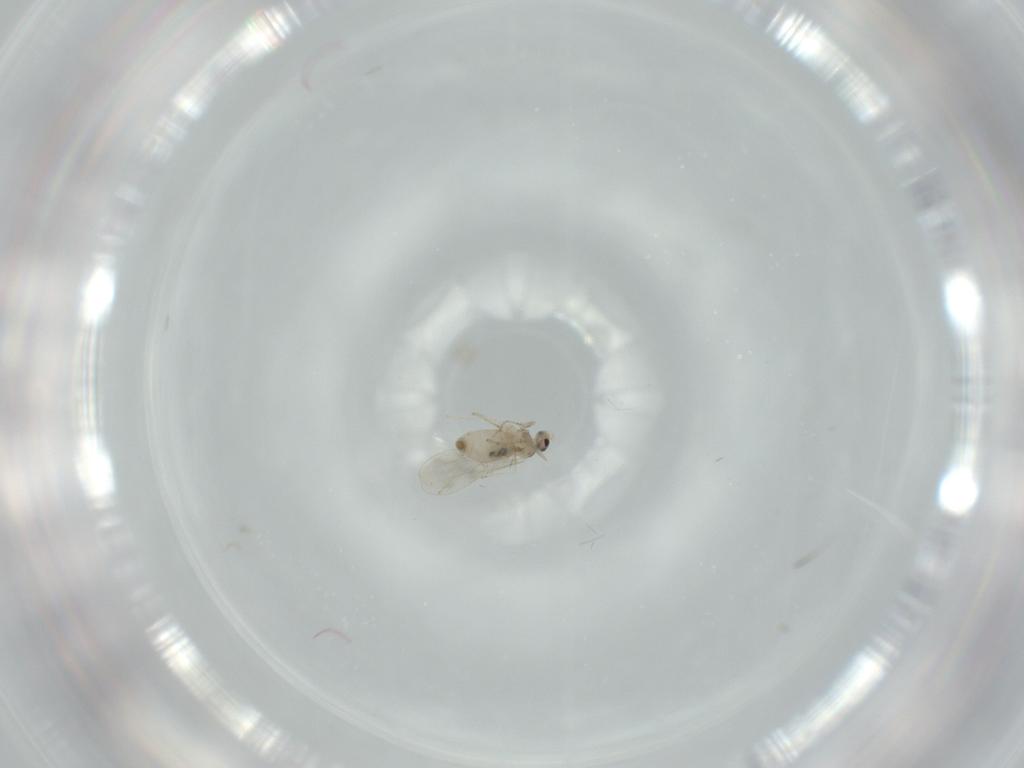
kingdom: Animalia
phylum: Arthropoda
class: Insecta
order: Diptera
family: Cecidomyiidae
